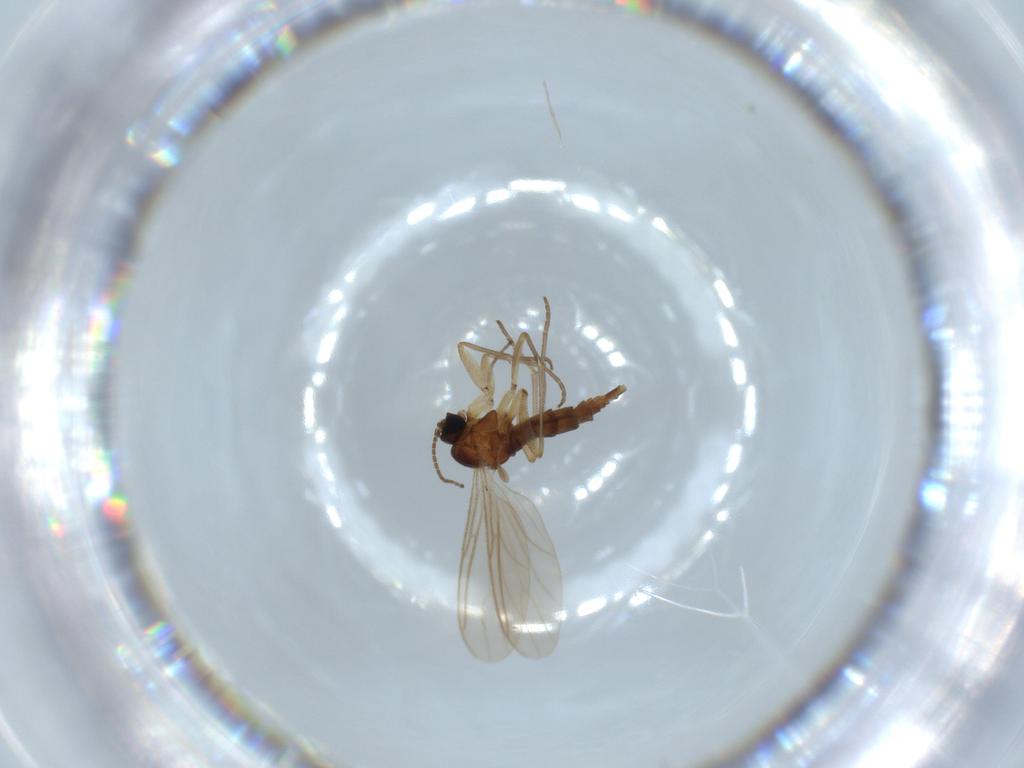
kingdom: Animalia
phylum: Arthropoda
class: Insecta
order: Diptera
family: Sciaridae
